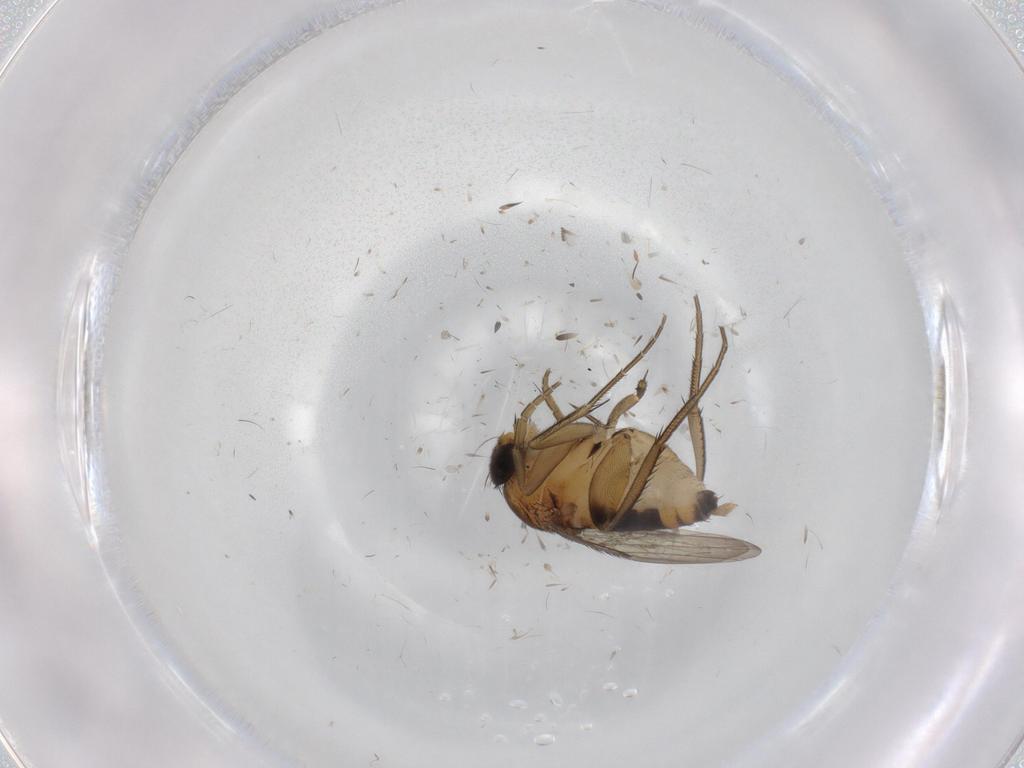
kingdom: Animalia
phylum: Arthropoda
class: Insecta
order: Diptera
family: Phoridae
